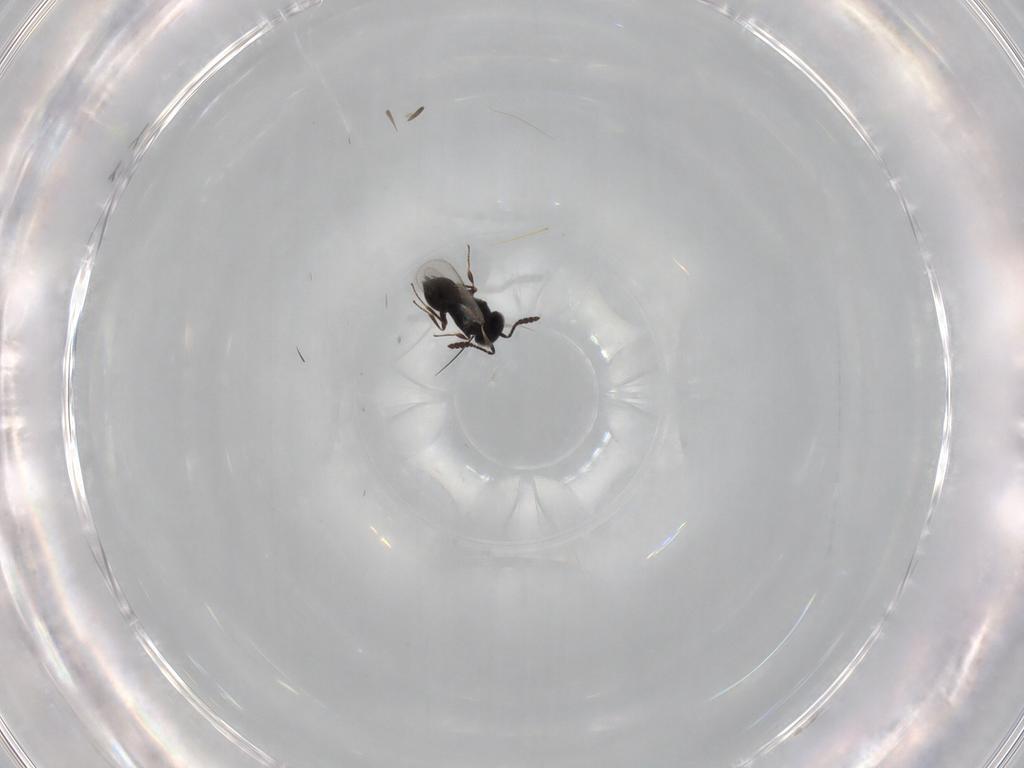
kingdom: Animalia
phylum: Arthropoda
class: Insecta
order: Hymenoptera
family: Scelionidae
